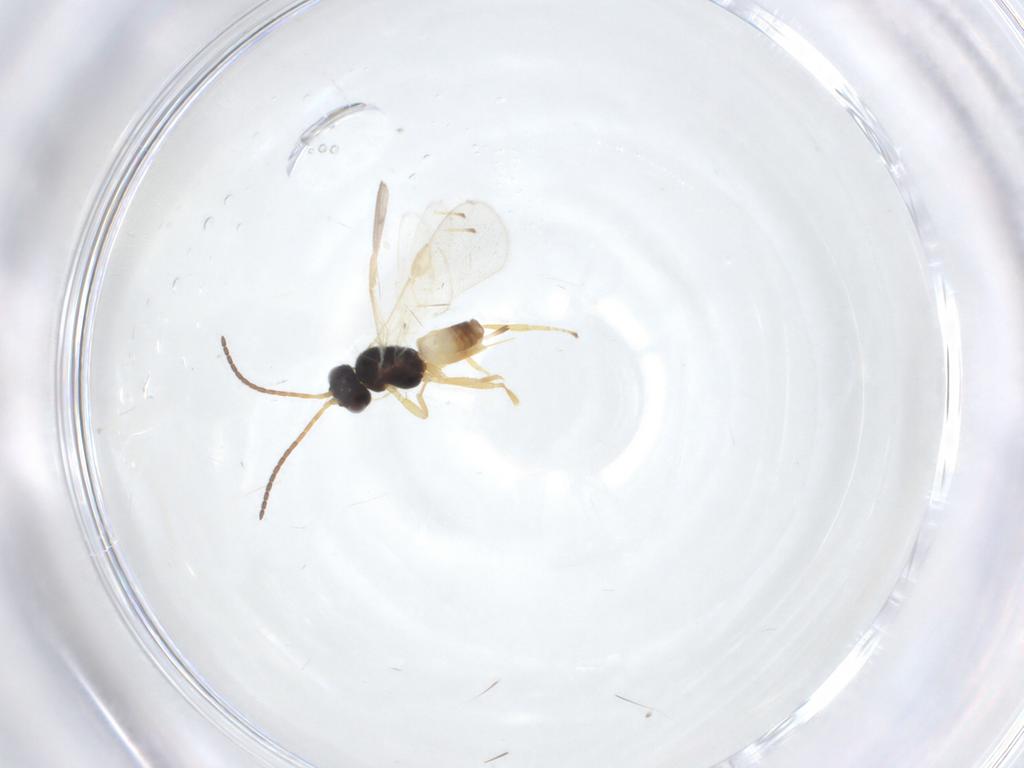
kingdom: Animalia
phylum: Arthropoda
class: Insecta
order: Hymenoptera
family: Braconidae
